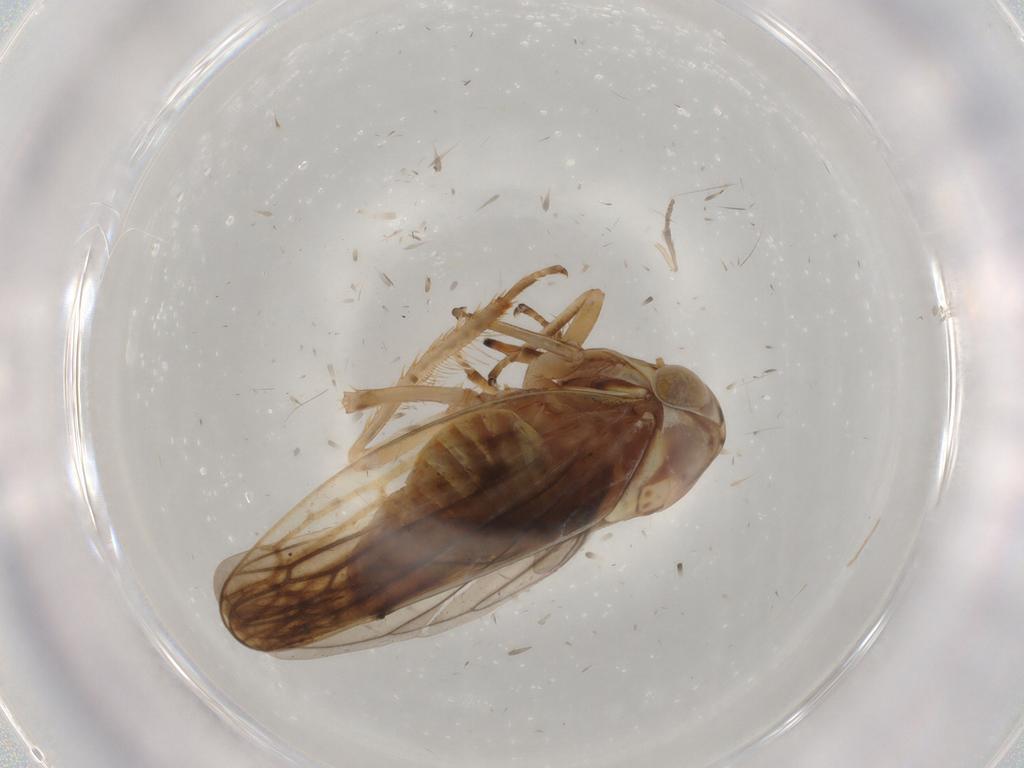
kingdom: Animalia
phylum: Arthropoda
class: Insecta
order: Hemiptera
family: Cicadellidae
